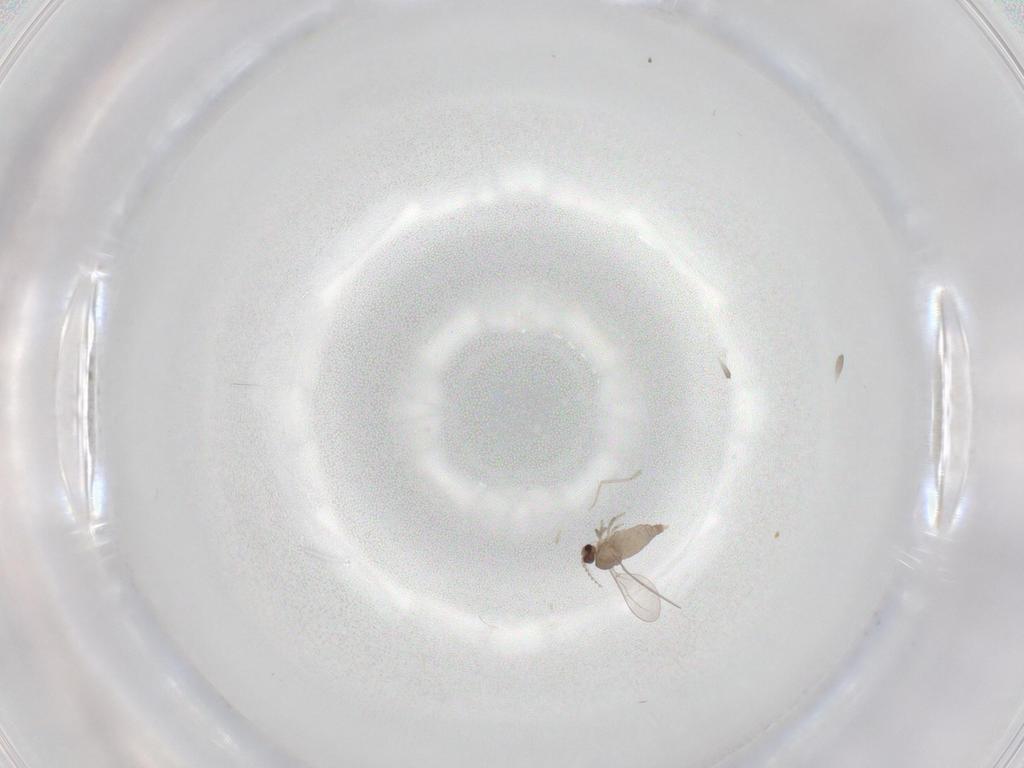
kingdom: Animalia
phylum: Arthropoda
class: Insecta
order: Diptera
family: Cecidomyiidae
